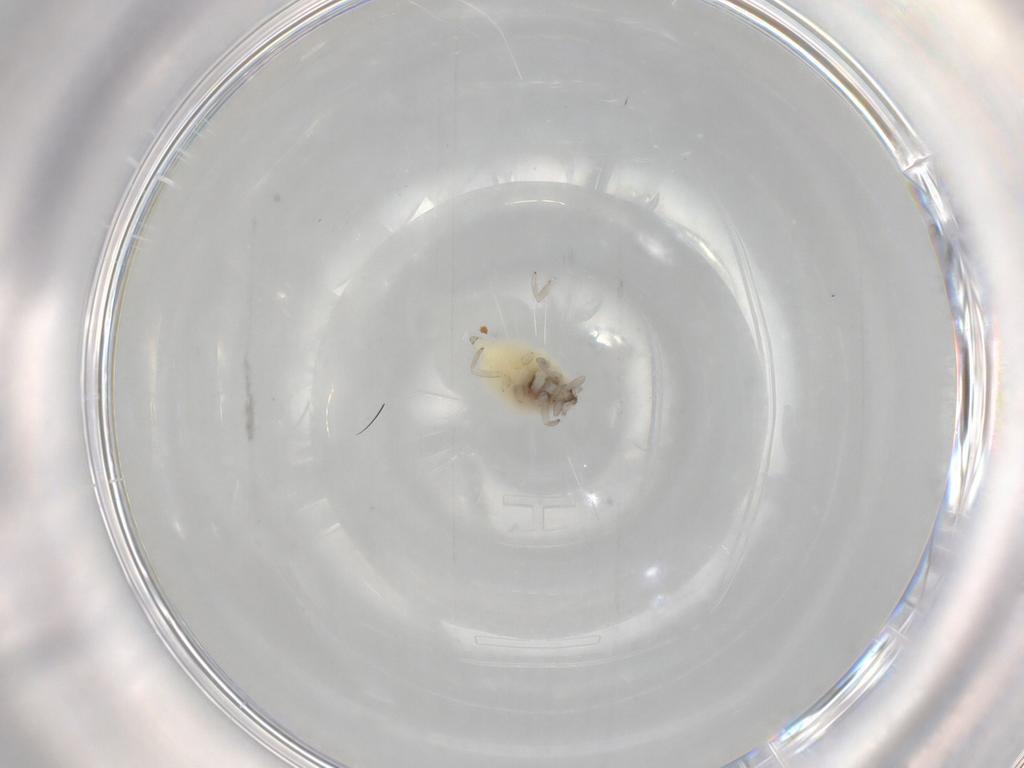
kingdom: Animalia
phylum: Arthropoda
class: Insecta
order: Neuroptera
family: Coniopterygidae
